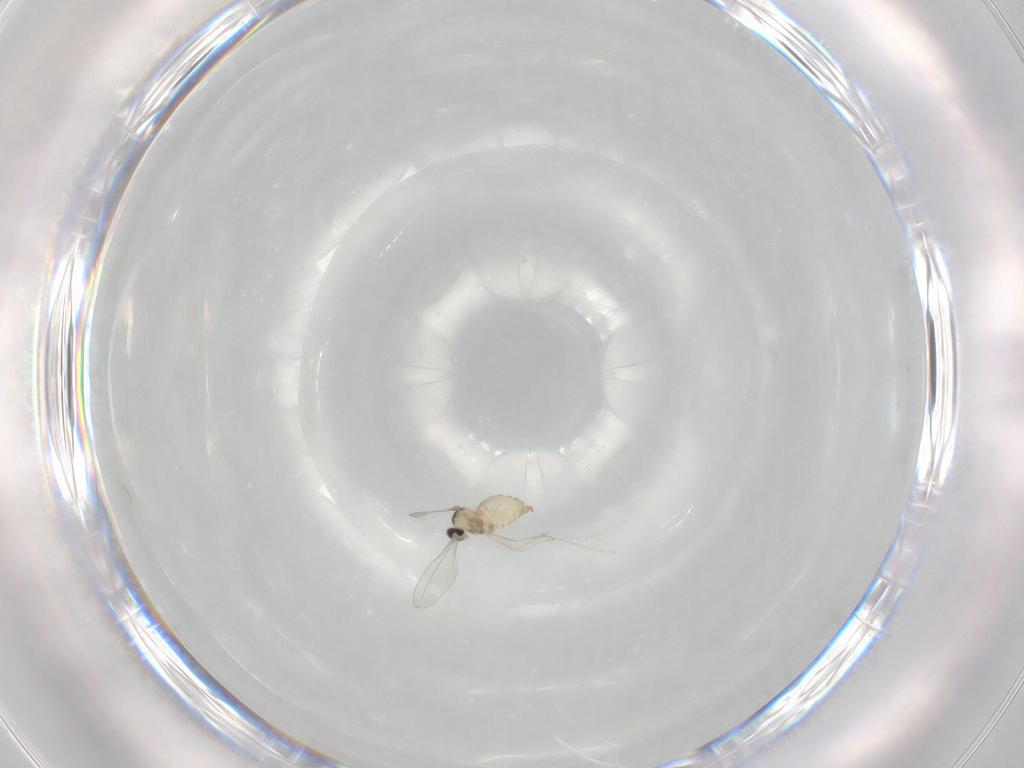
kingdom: Animalia
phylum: Arthropoda
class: Insecta
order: Diptera
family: Cecidomyiidae
